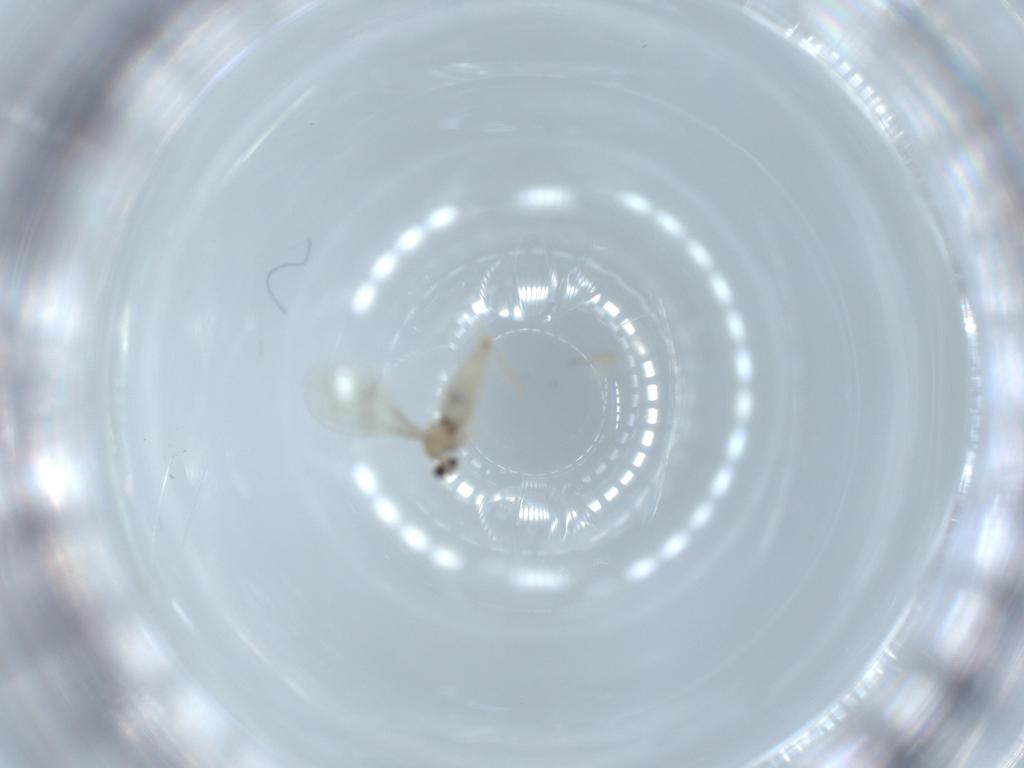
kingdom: Animalia
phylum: Arthropoda
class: Insecta
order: Diptera
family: Cecidomyiidae
